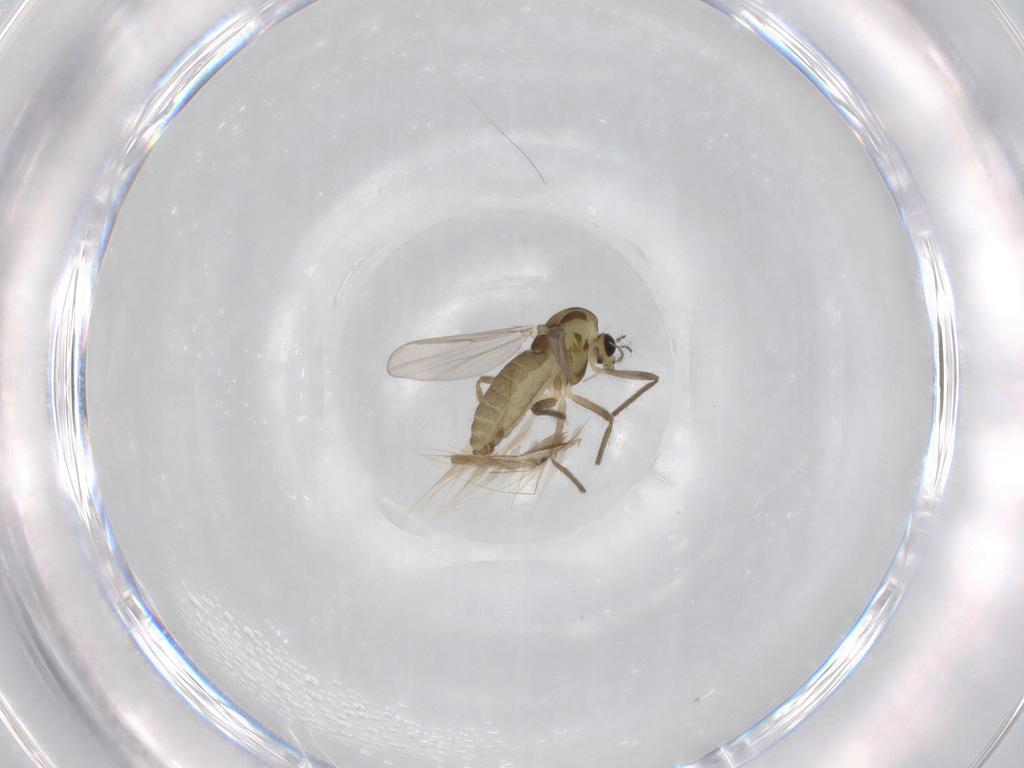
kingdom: Animalia
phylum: Arthropoda
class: Insecta
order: Diptera
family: Chironomidae
